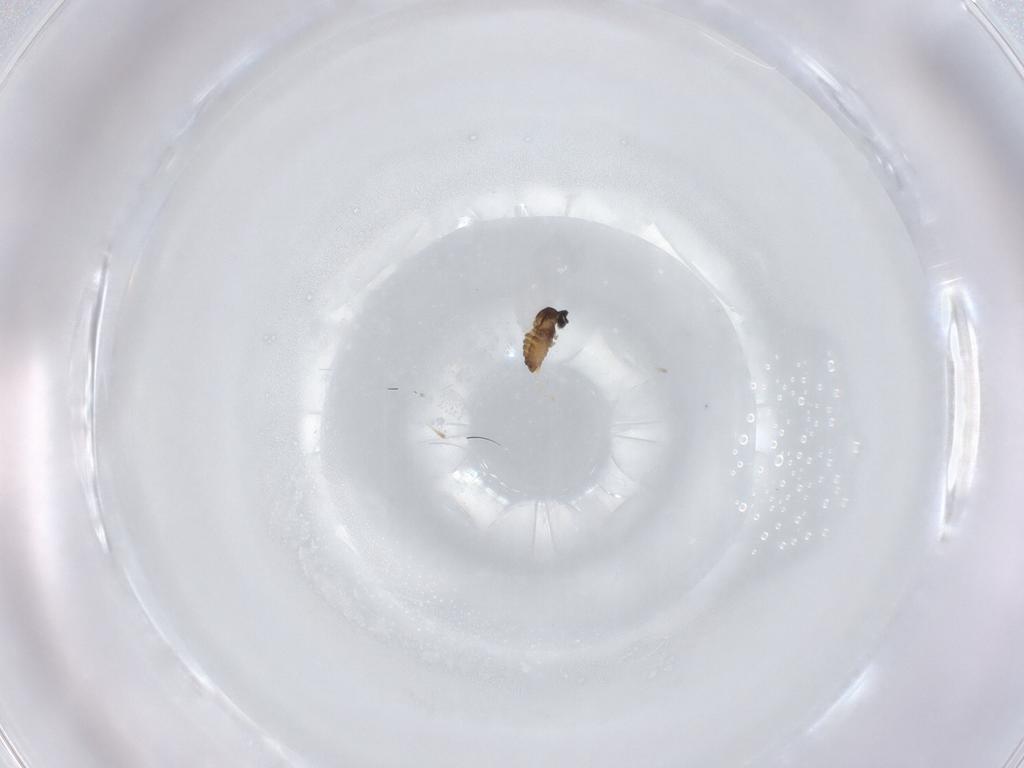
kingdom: Animalia
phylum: Arthropoda
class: Insecta
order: Diptera
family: Cecidomyiidae
